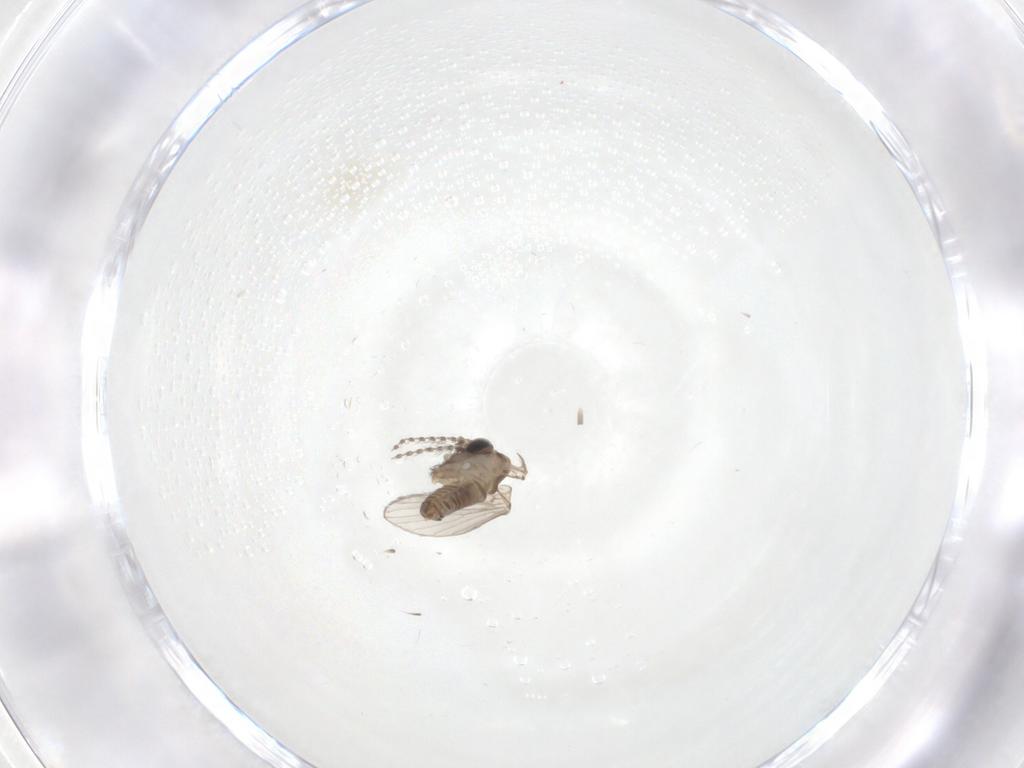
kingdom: Animalia
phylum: Arthropoda
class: Insecta
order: Diptera
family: Psychodidae
